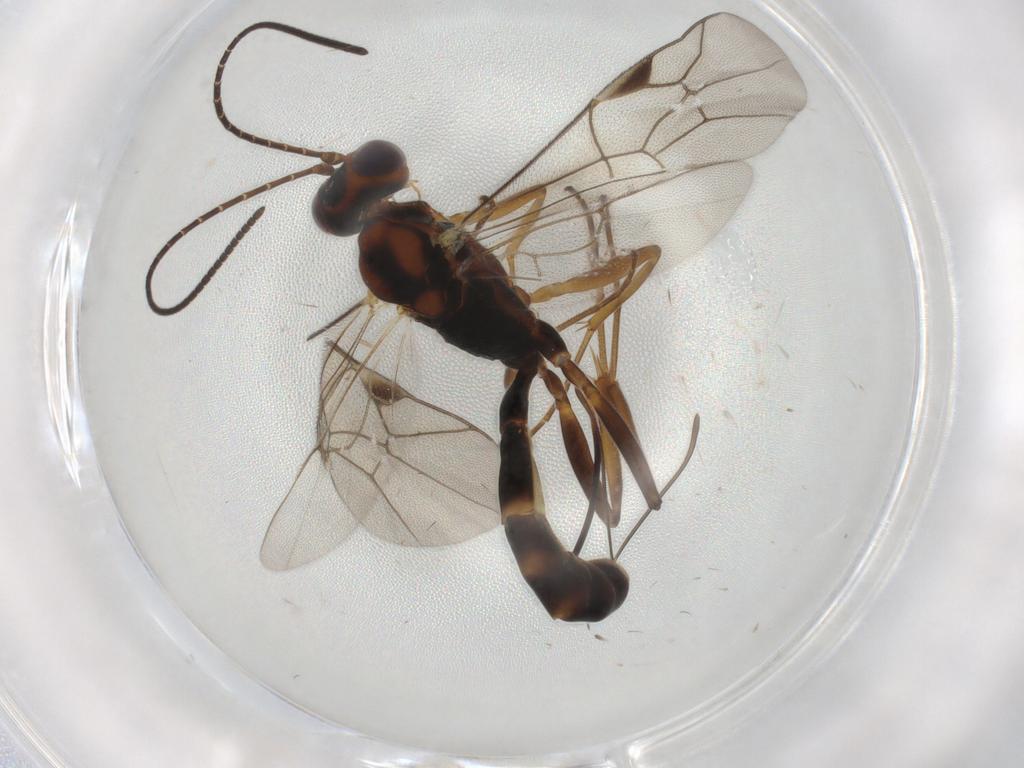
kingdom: Animalia
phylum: Arthropoda
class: Insecta
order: Hymenoptera
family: Ichneumonidae
